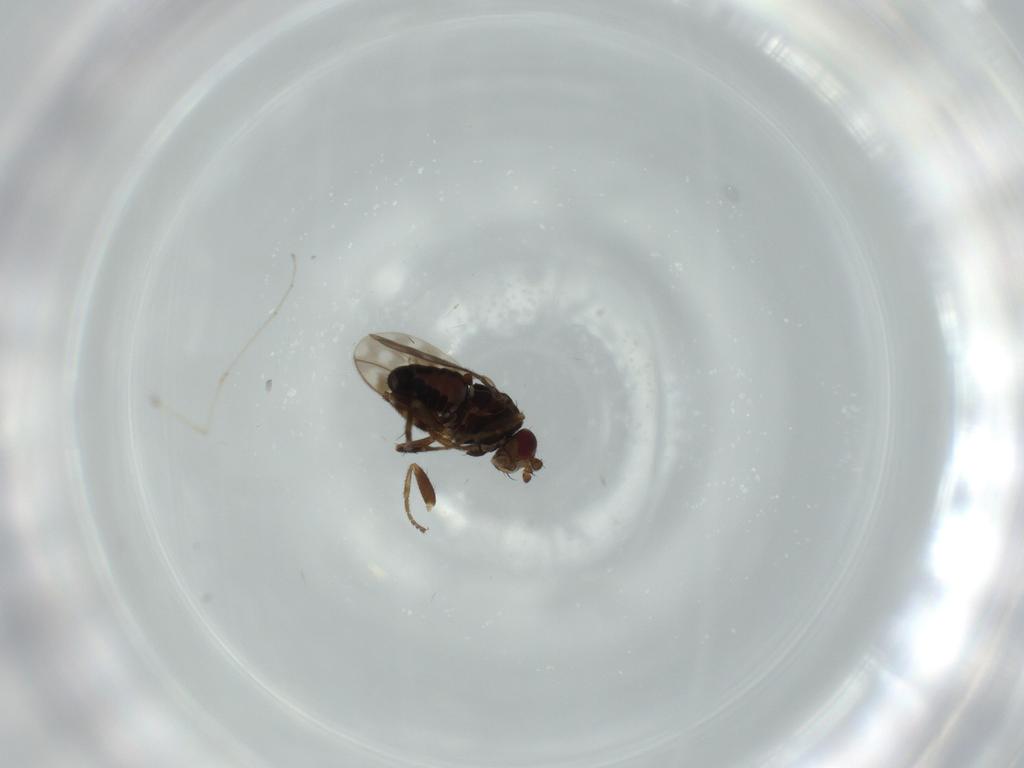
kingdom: Animalia
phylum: Arthropoda
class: Insecta
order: Diptera
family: Sphaeroceridae
